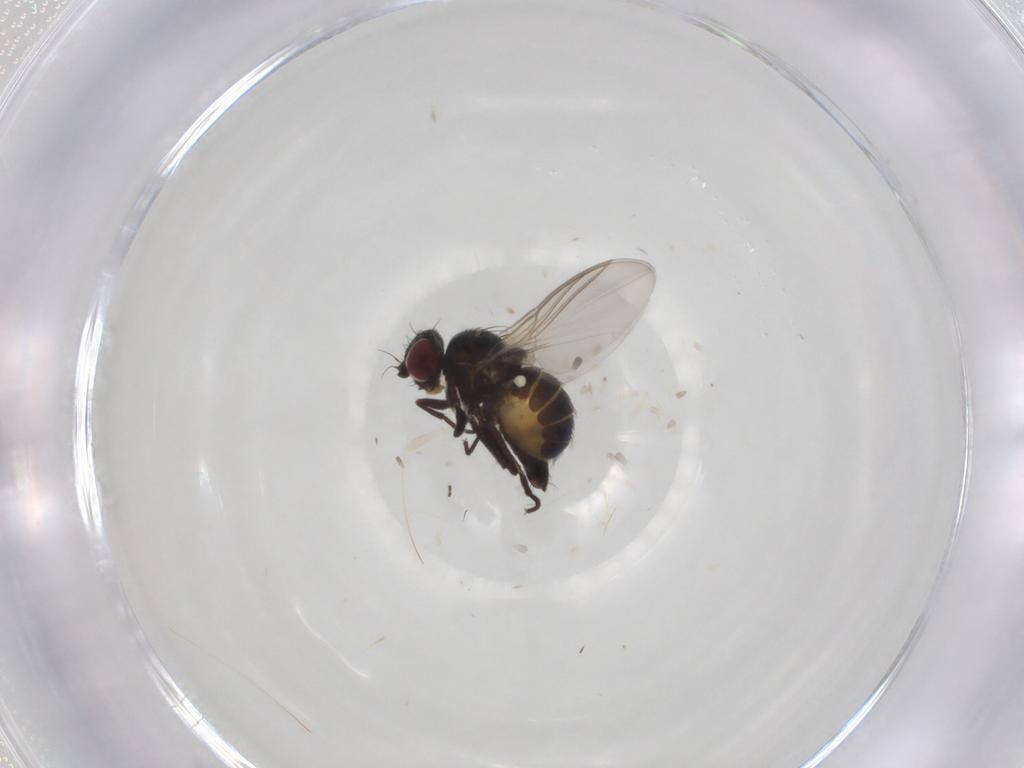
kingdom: Animalia
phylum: Arthropoda
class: Insecta
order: Diptera
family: Agromyzidae
